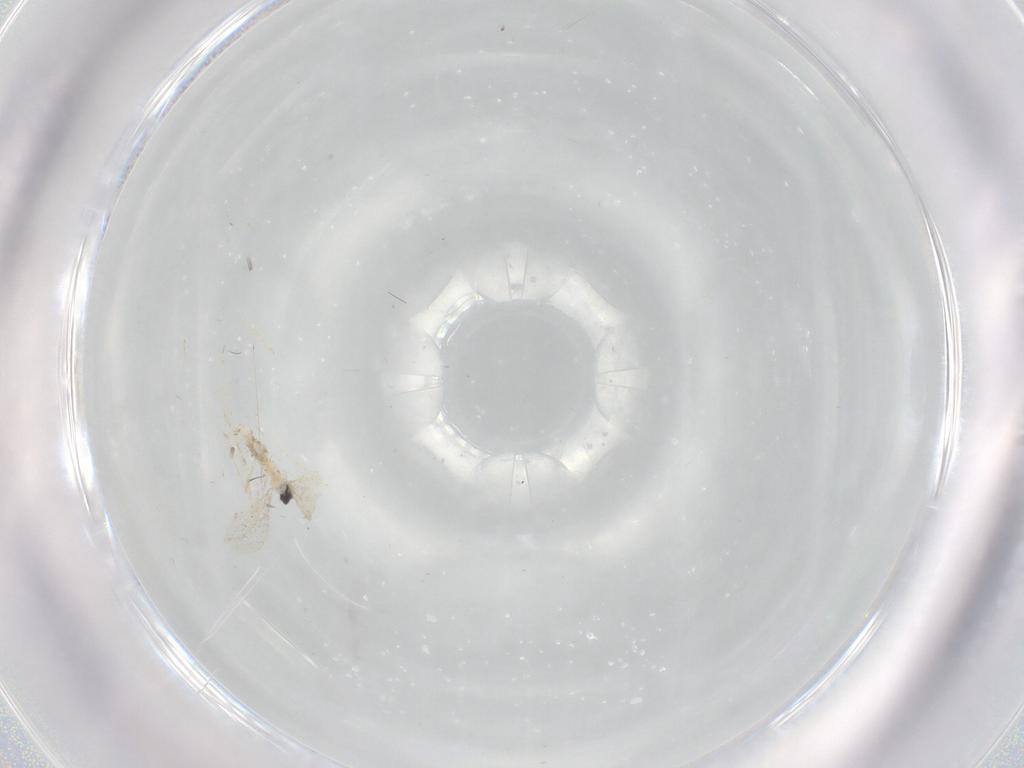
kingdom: Animalia
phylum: Arthropoda
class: Insecta
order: Diptera
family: Cecidomyiidae
